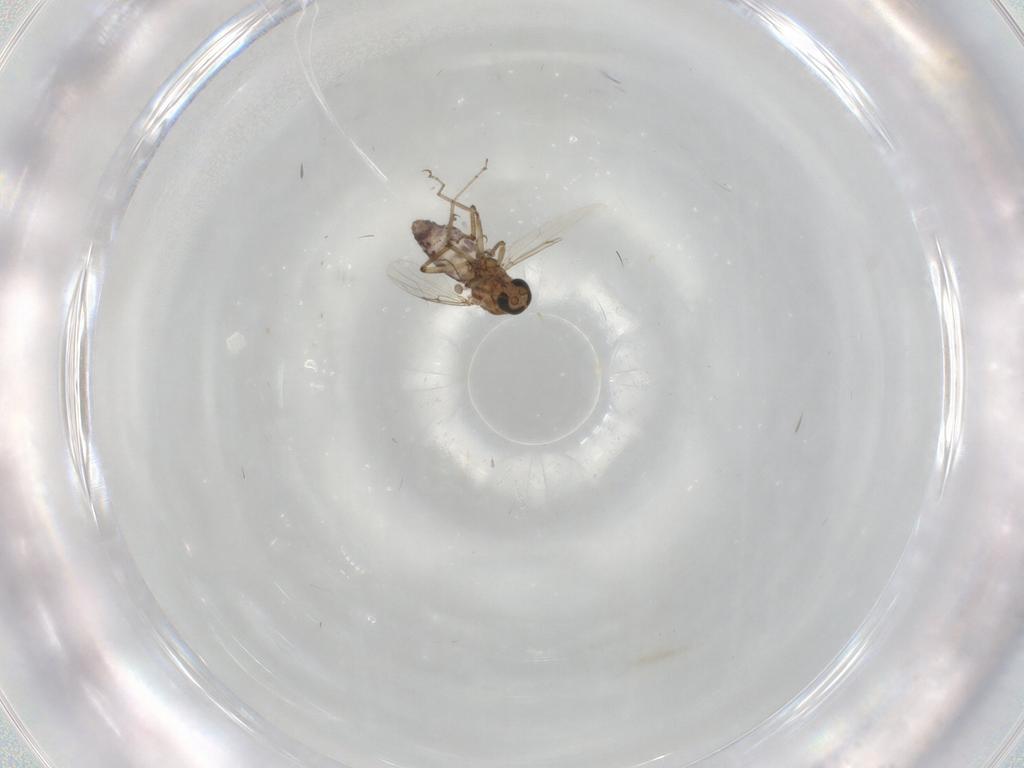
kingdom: Animalia
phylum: Arthropoda
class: Insecta
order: Diptera
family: Ceratopogonidae
